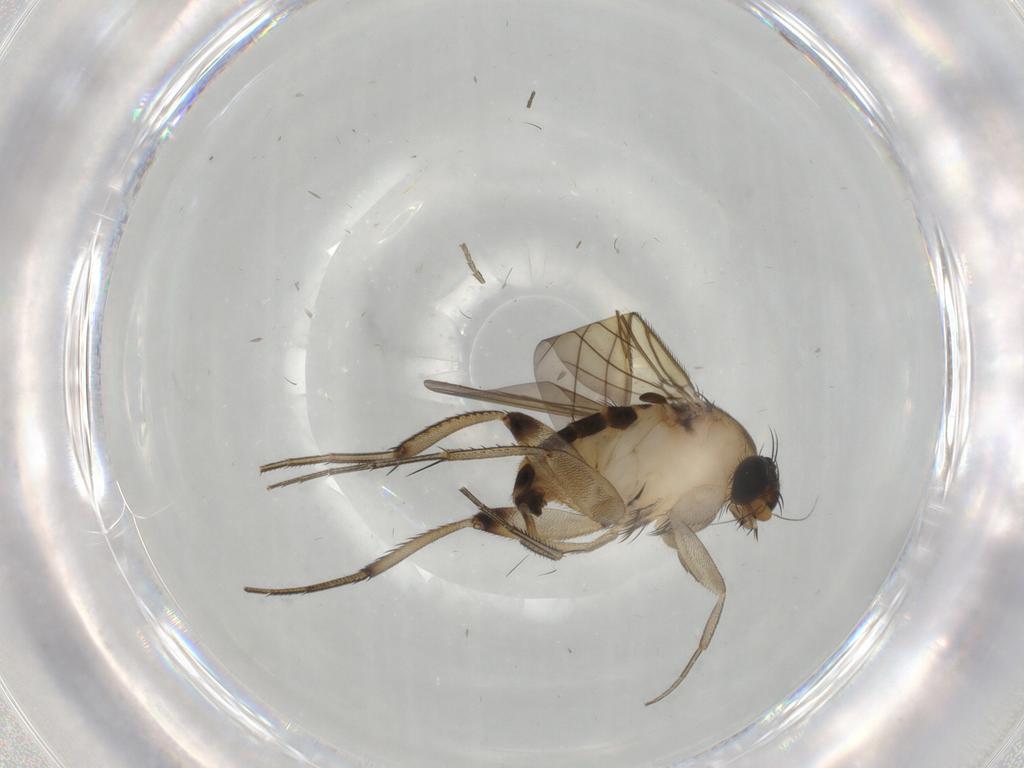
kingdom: Animalia
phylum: Arthropoda
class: Insecta
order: Diptera
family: Phoridae
